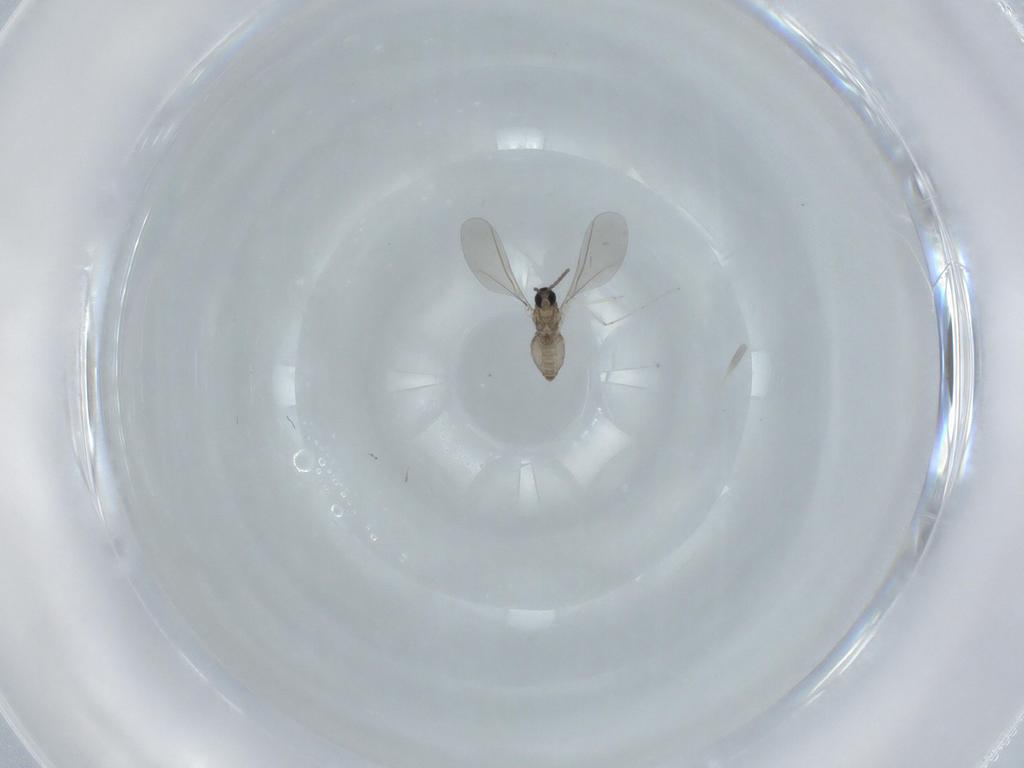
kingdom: Animalia
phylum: Arthropoda
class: Insecta
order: Diptera
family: Cecidomyiidae
